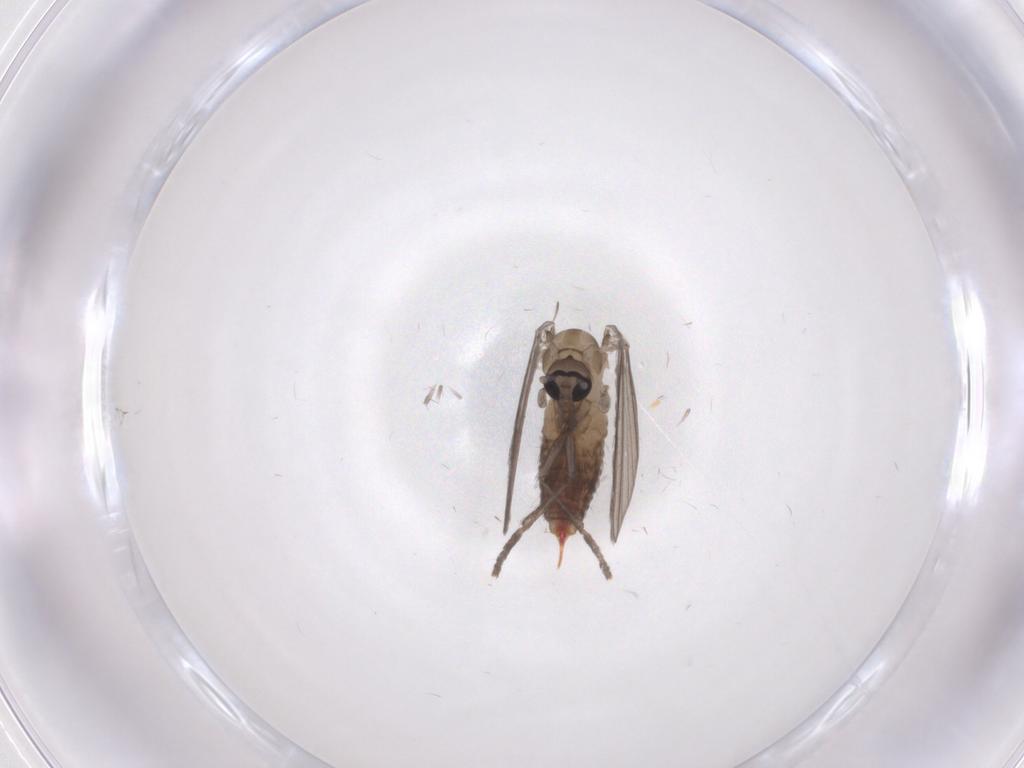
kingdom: Animalia
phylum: Arthropoda
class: Insecta
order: Diptera
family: Psychodidae
